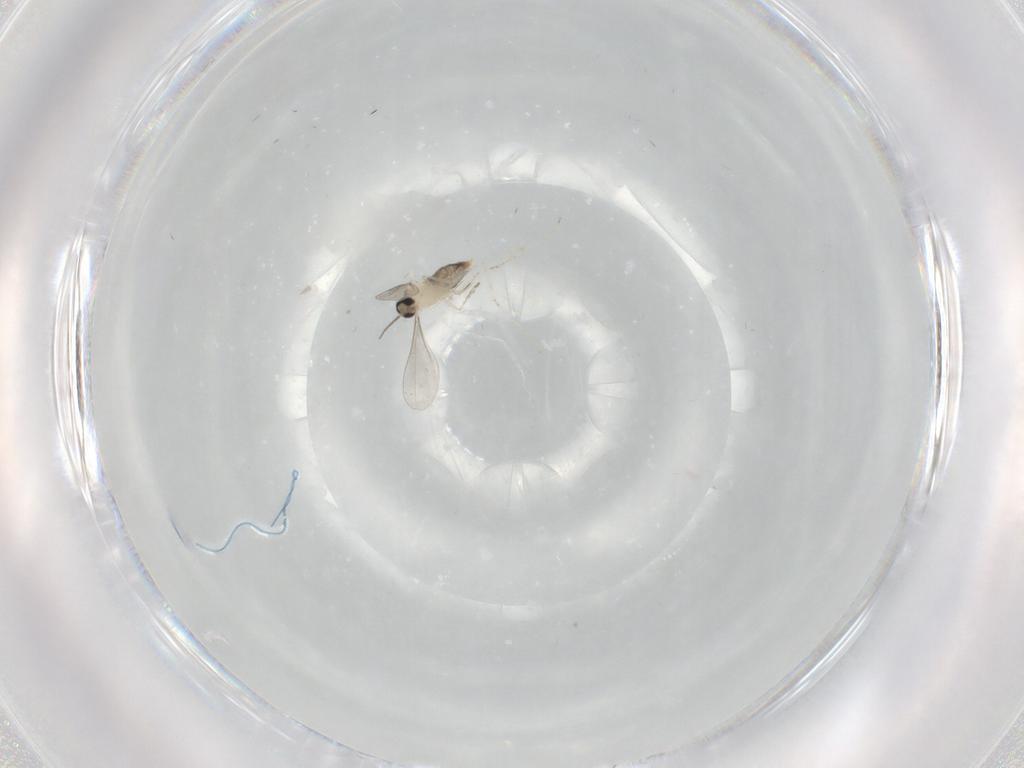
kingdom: Animalia
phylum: Arthropoda
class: Insecta
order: Diptera
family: Cecidomyiidae
